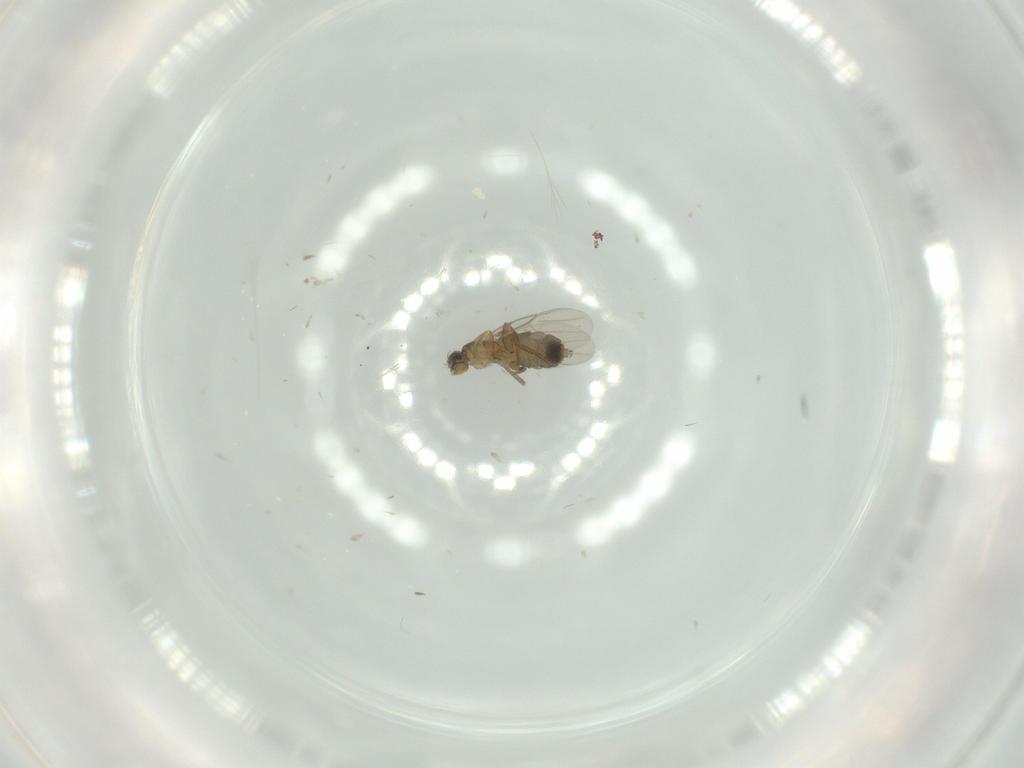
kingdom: Animalia
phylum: Arthropoda
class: Insecta
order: Diptera
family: Phoridae
